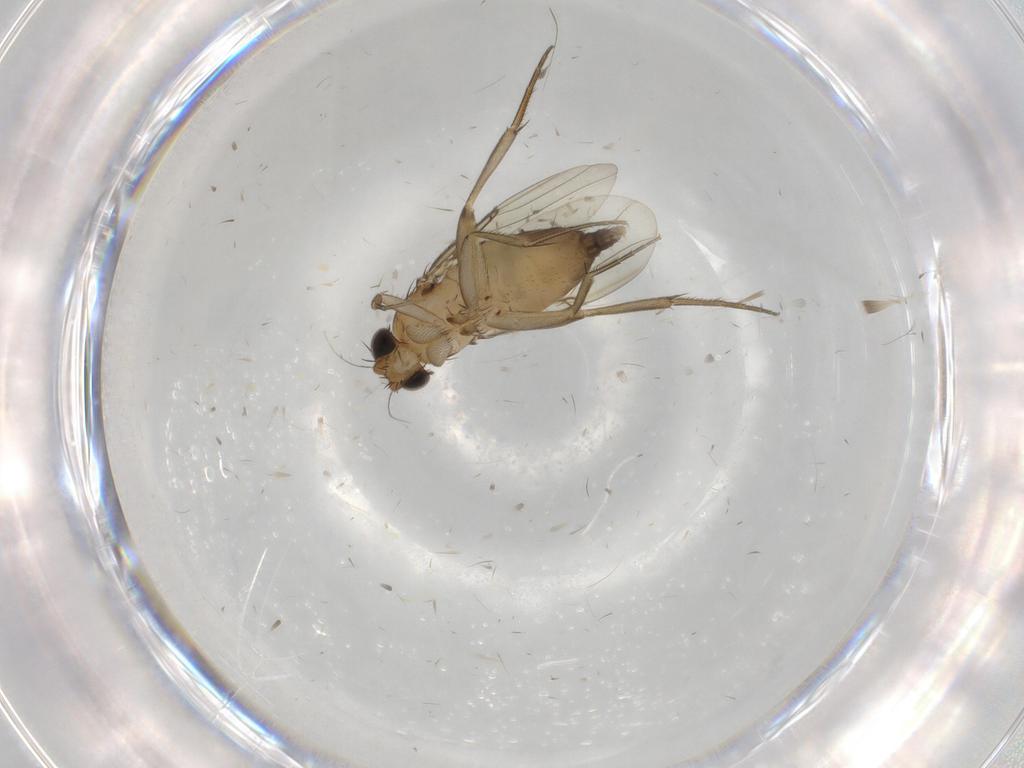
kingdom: Animalia
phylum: Arthropoda
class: Insecta
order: Diptera
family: Phoridae
